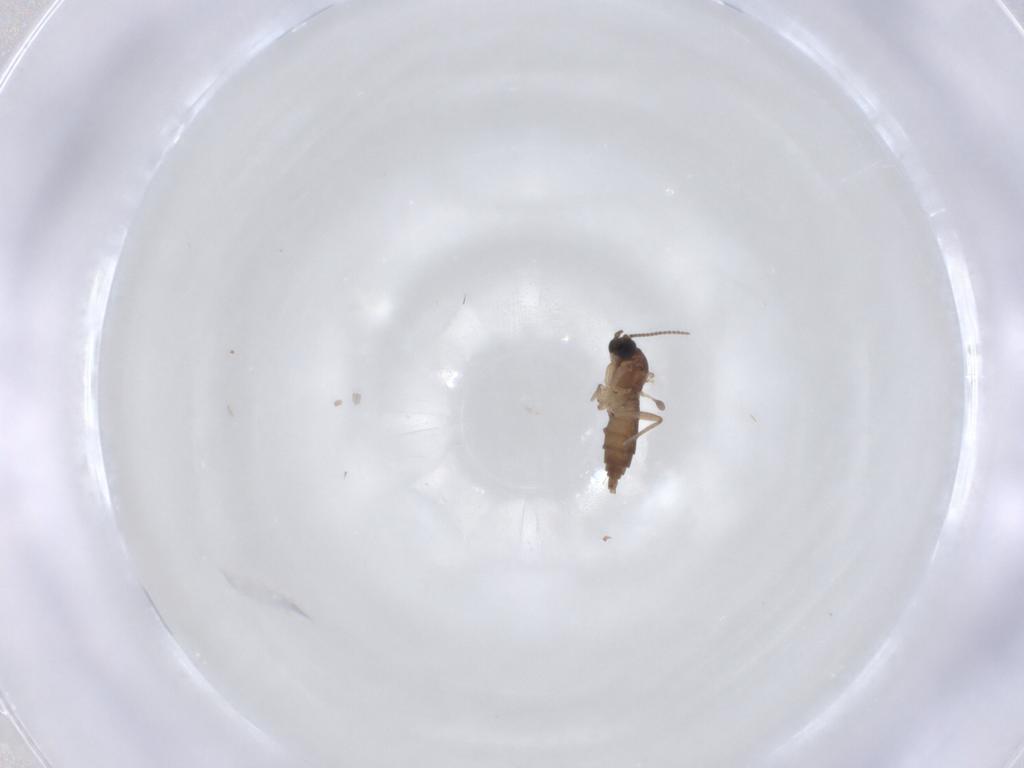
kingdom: Animalia
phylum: Arthropoda
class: Insecta
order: Diptera
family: Sciaridae
